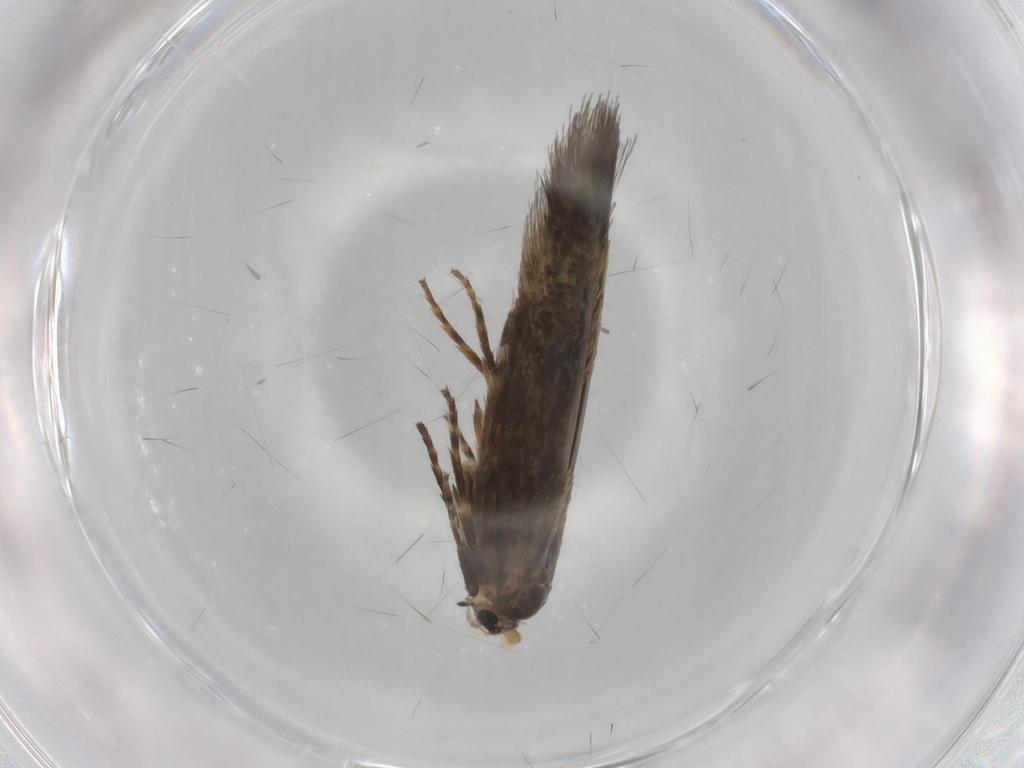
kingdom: Animalia
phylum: Arthropoda
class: Insecta
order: Lepidoptera
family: Nepticulidae
